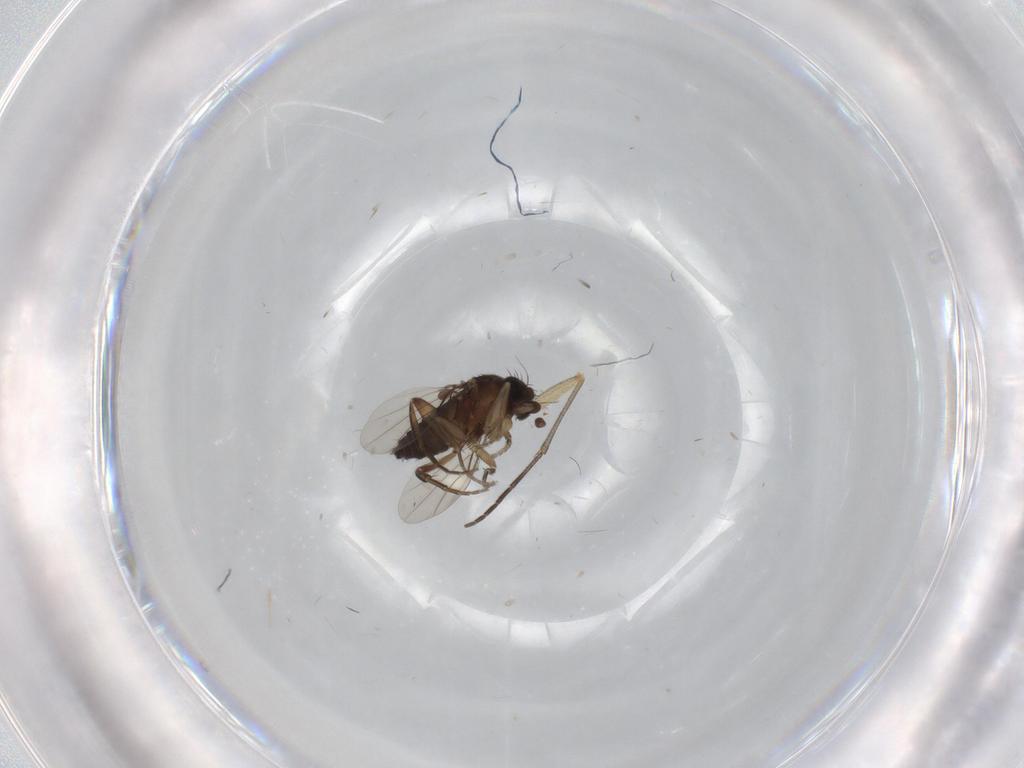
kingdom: Animalia
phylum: Arthropoda
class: Insecta
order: Diptera
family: Phoridae
